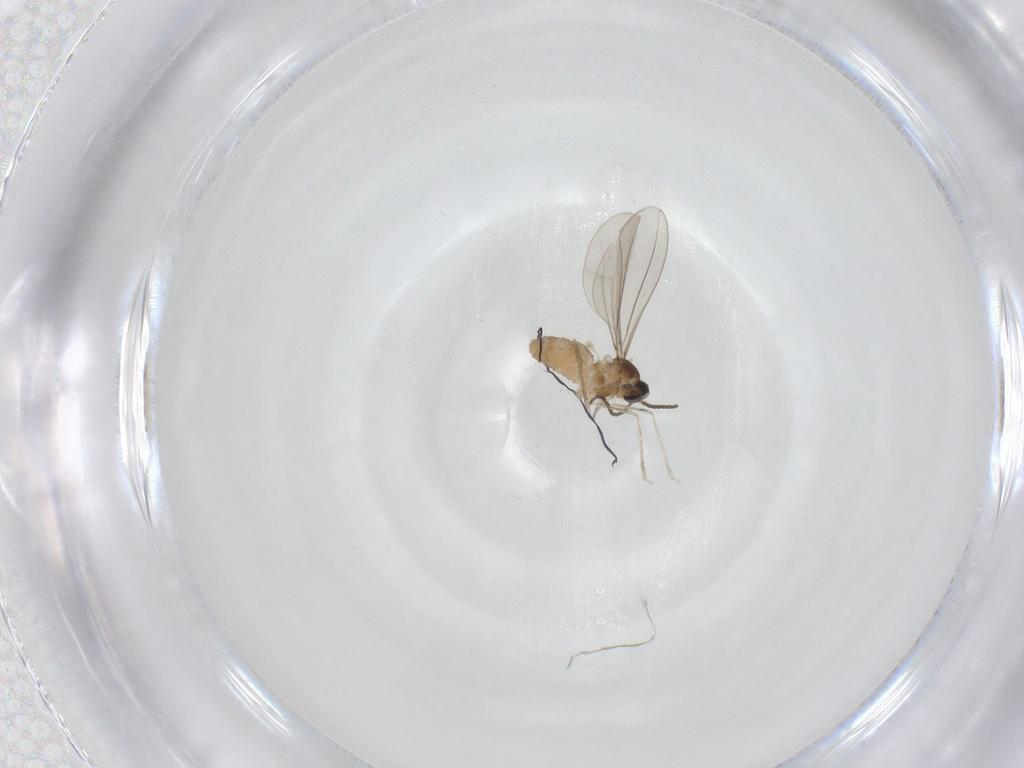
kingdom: Animalia
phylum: Arthropoda
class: Insecta
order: Diptera
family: Cecidomyiidae
